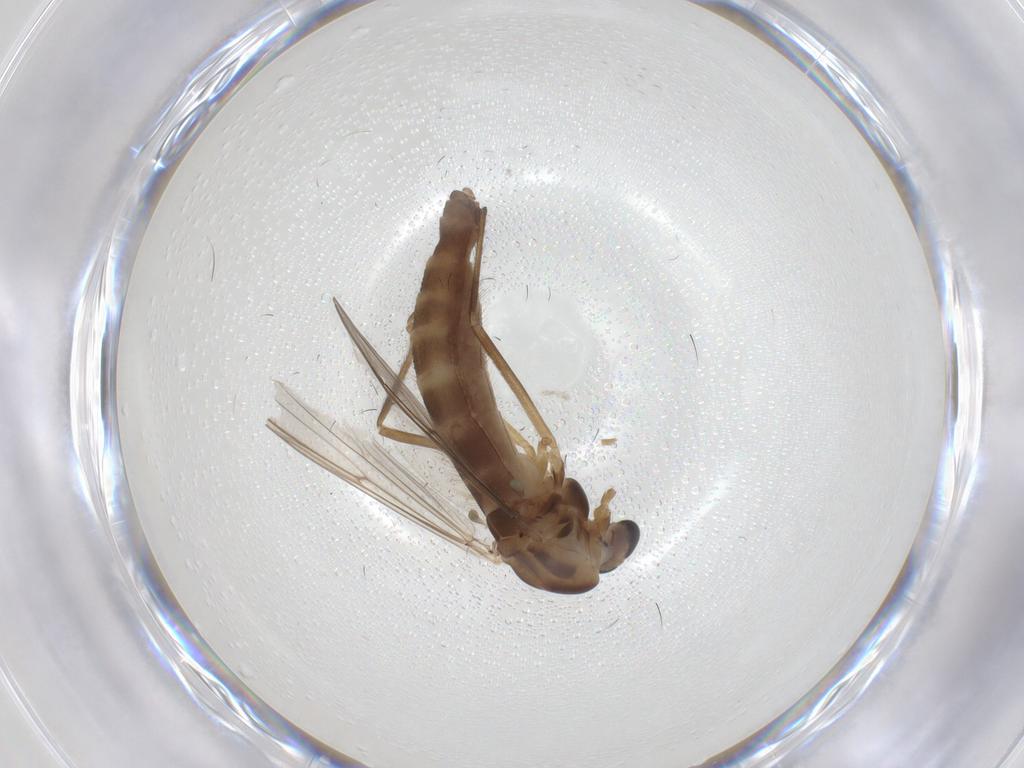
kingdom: Animalia
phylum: Arthropoda
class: Insecta
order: Diptera
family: Chironomidae
